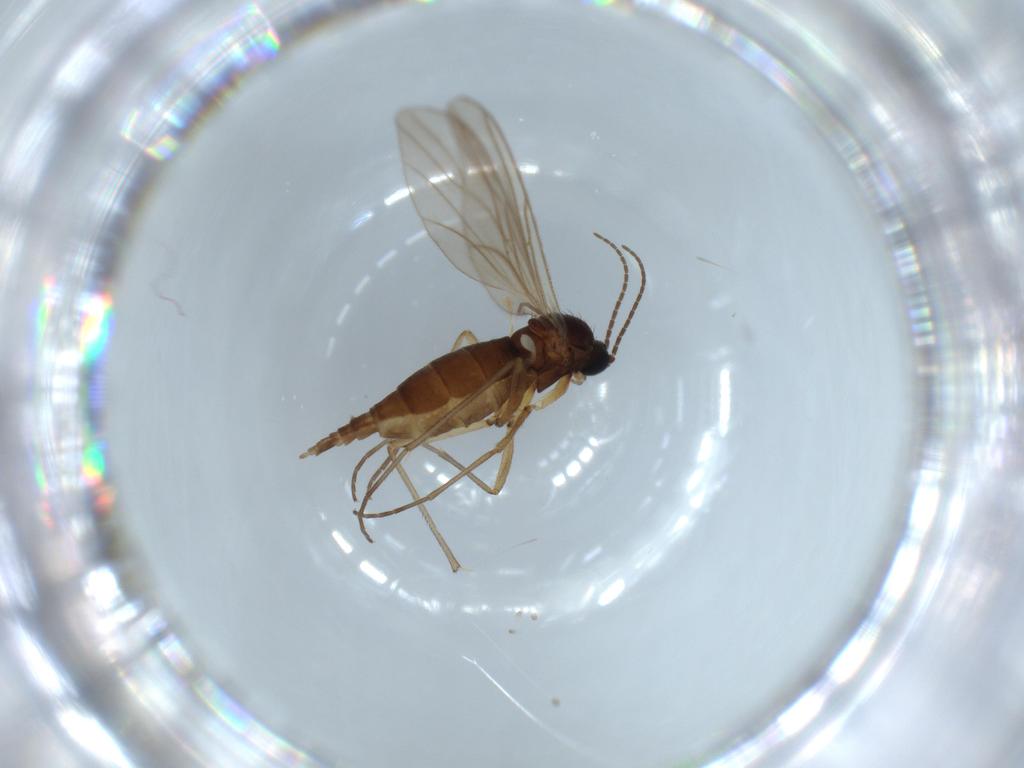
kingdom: Animalia
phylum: Arthropoda
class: Insecta
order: Diptera
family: Sciaridae
